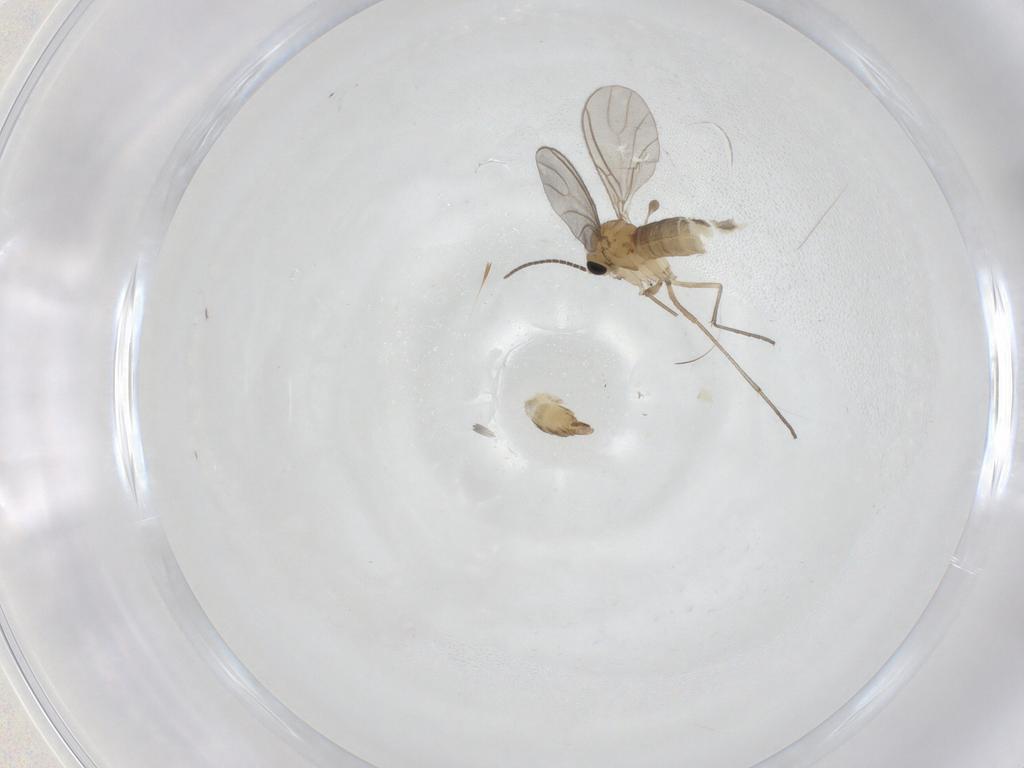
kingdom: Animalia
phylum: Arthropoda
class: Insecta
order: Diptera
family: Sciaridae
